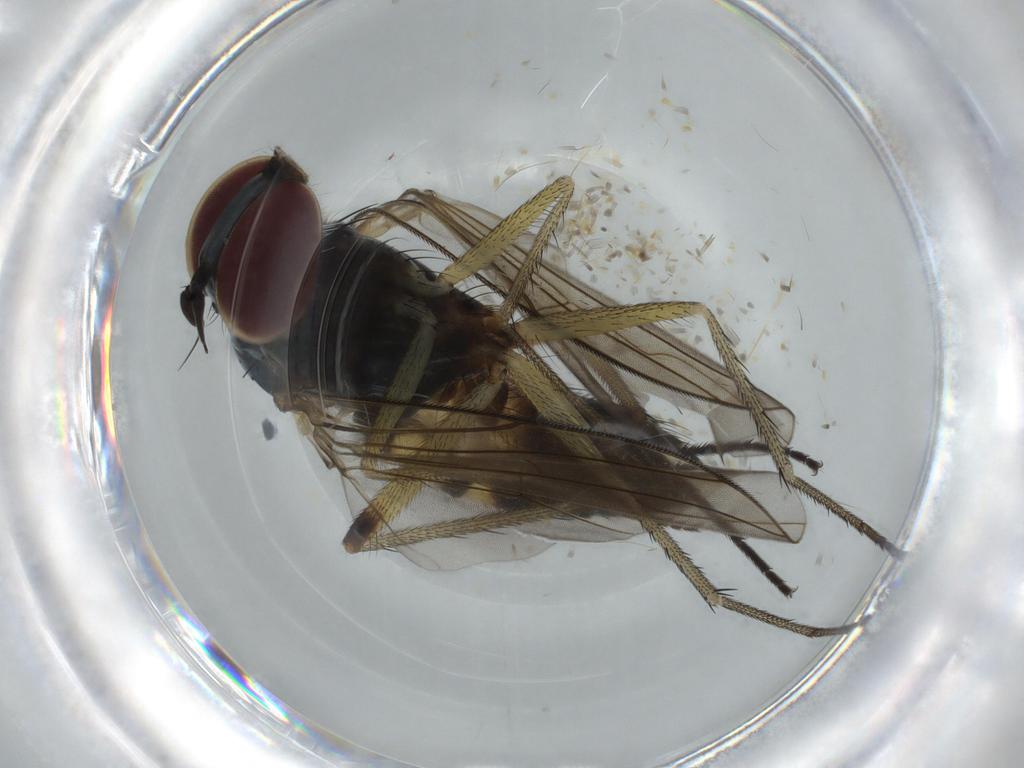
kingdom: Animalia
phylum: Arthropoda
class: Insecta
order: Diptera
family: Dolichopodidae
